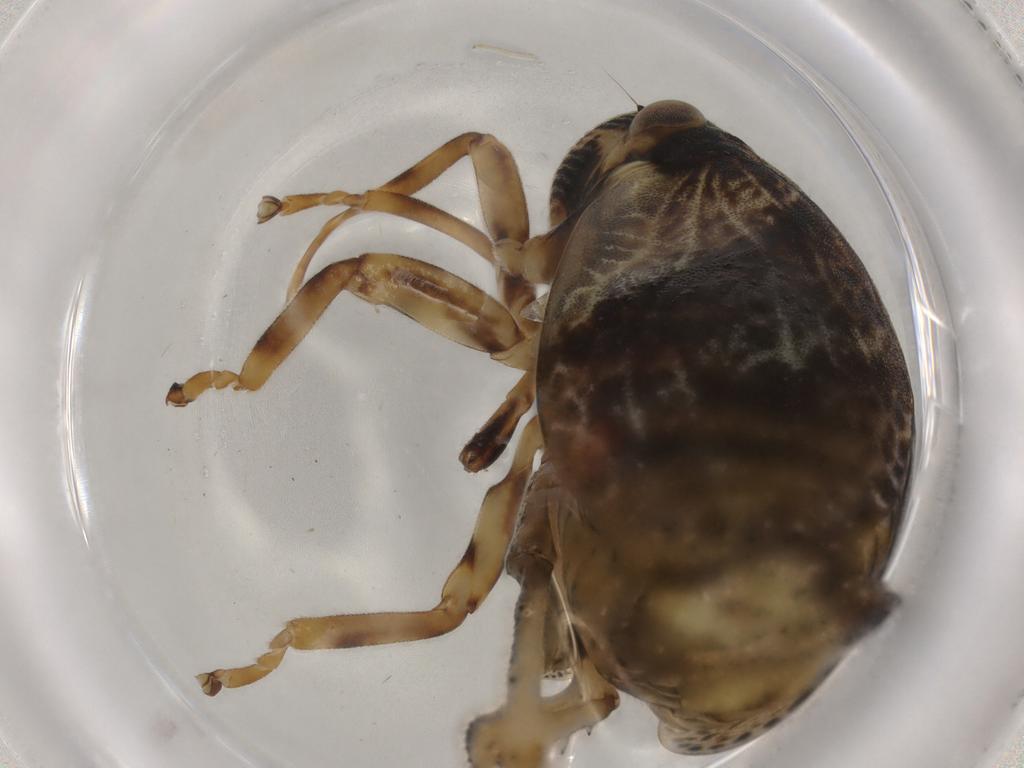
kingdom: Animalia
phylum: Arthropoda
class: Insecta
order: Hemiptera
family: Aphrophoridae
